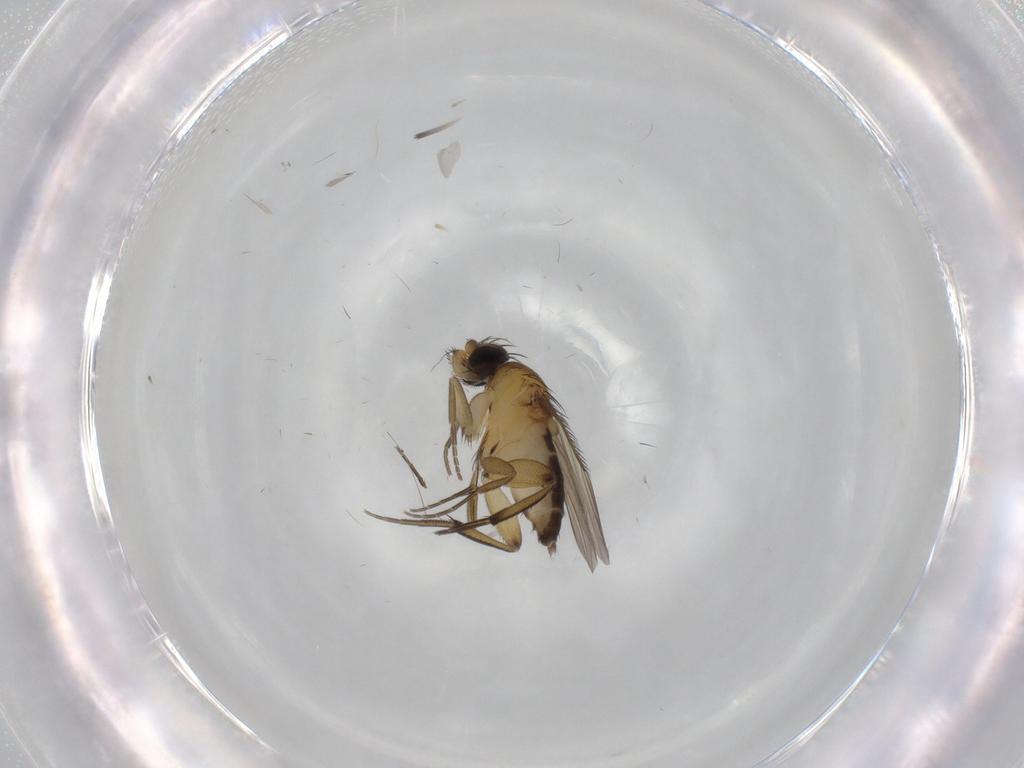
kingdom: Animalia
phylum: Arthropoda
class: Insecta
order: Diptera
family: Phoridae
